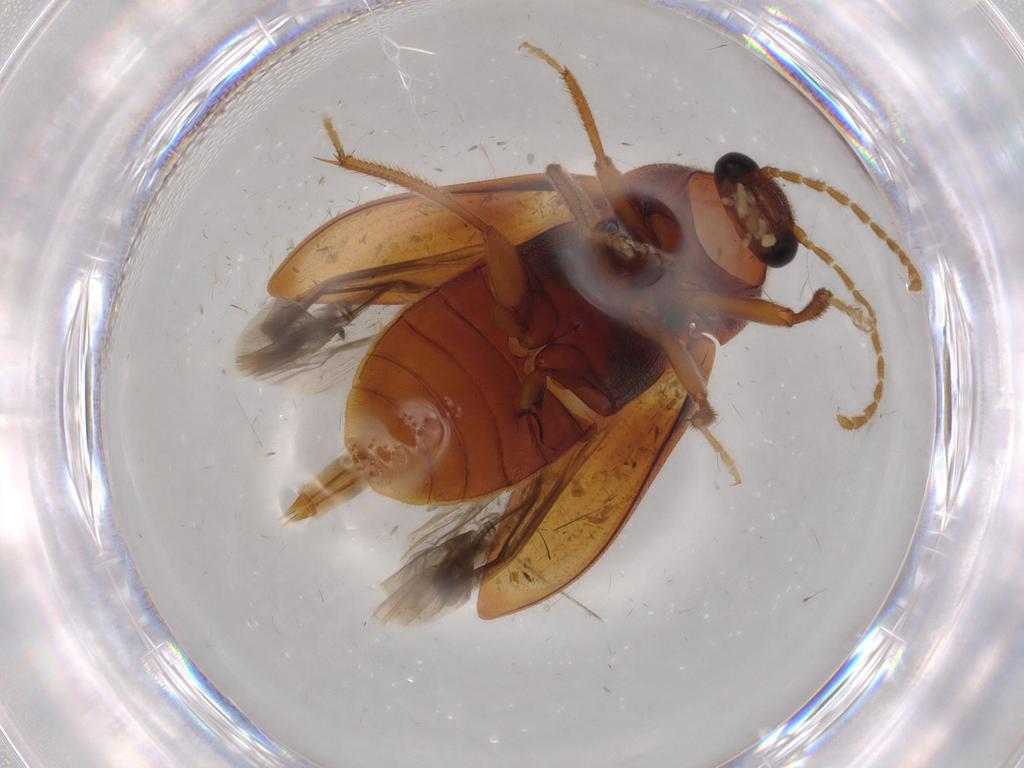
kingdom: Animalia
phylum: Arthropoda
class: Insecta
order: Coleoptera
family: Ptilodactylidae
